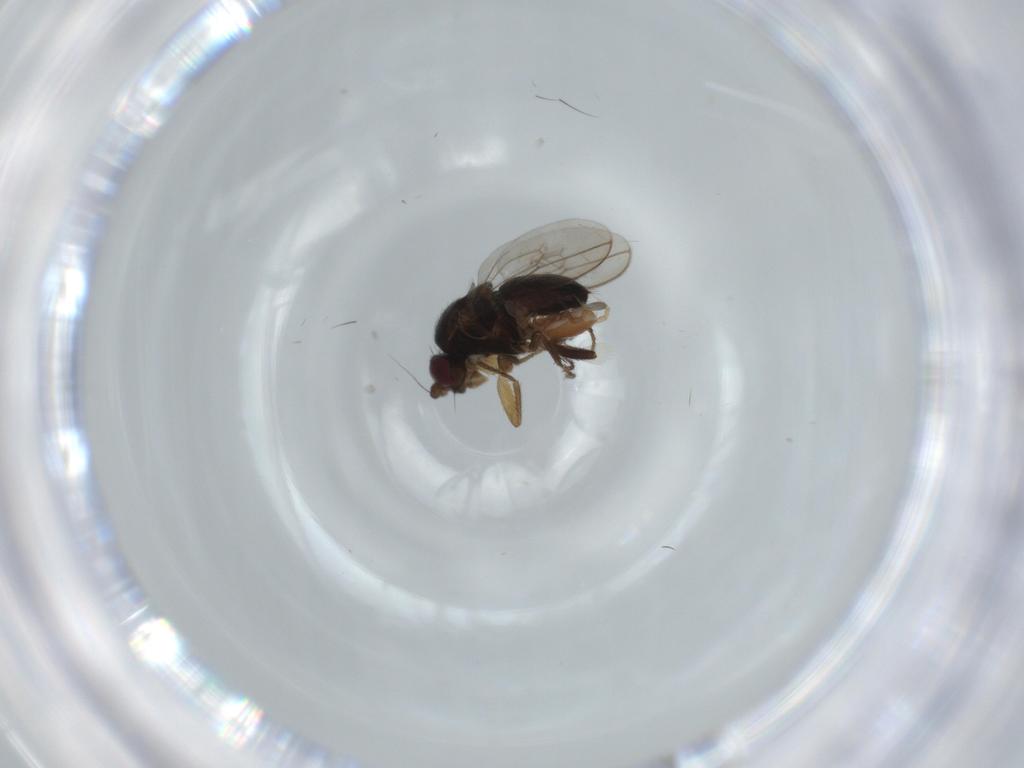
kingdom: Animalia
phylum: Arthropoda
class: Insecta
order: Diptera
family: Sphaeroceridae
